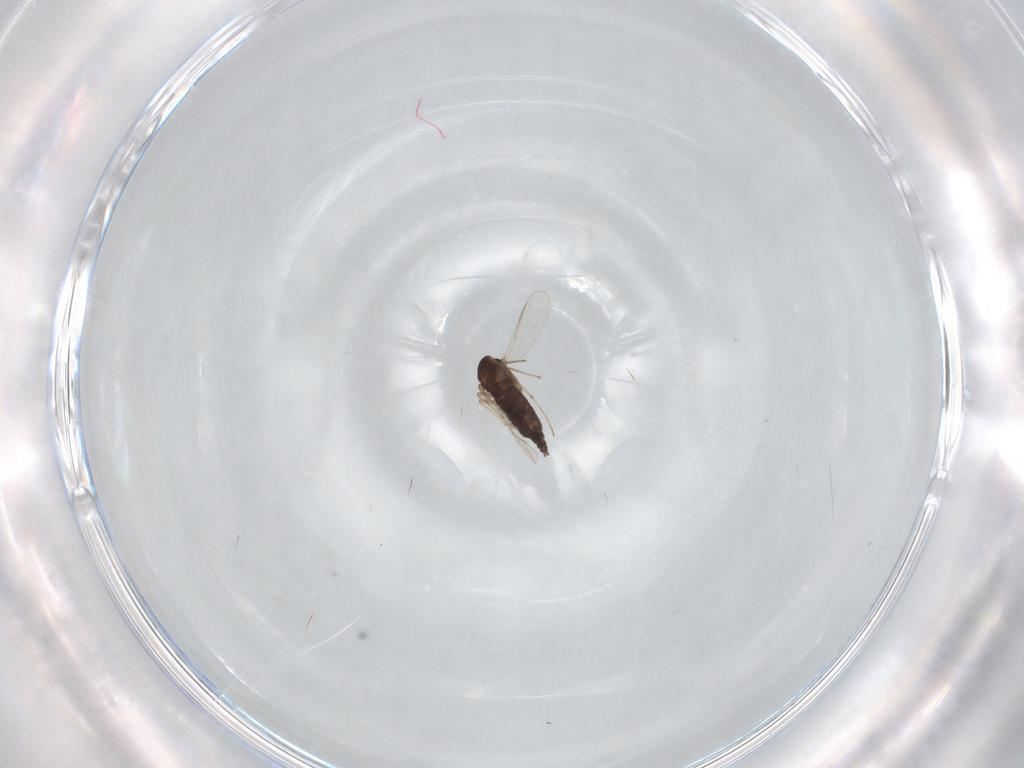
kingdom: Animalia
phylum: Arthropoda
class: Insecta
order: Diptera
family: Chironomidae
